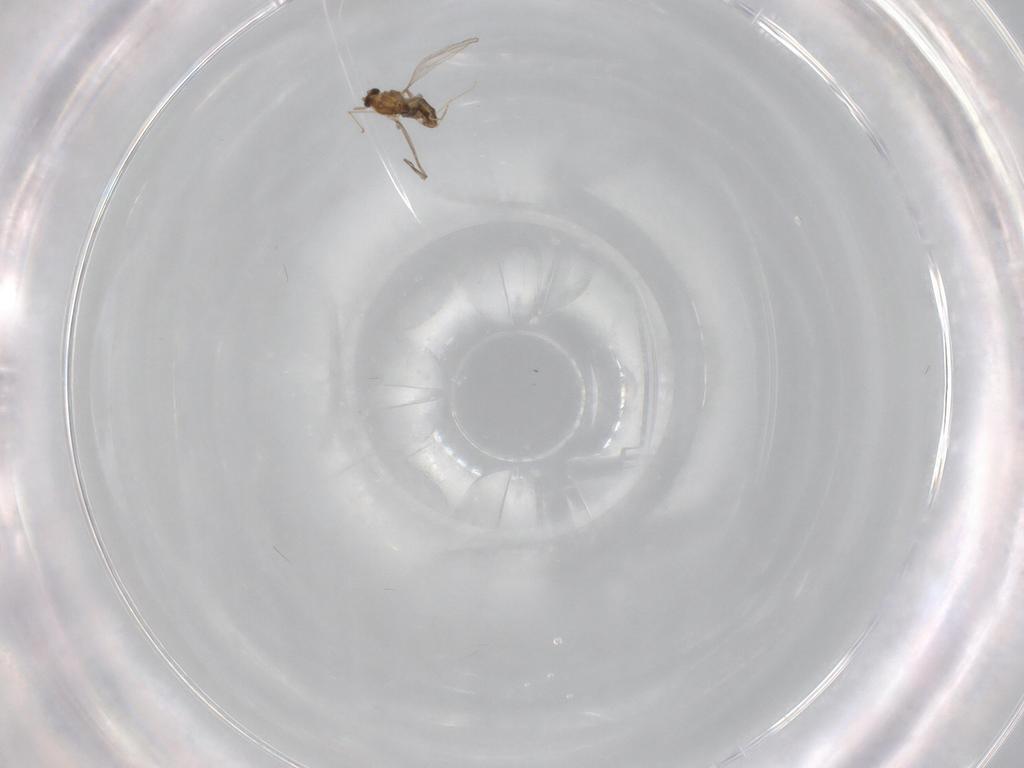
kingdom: Animalia
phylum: Arthropoda
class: Insecta
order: Diptera
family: Chironomidae
